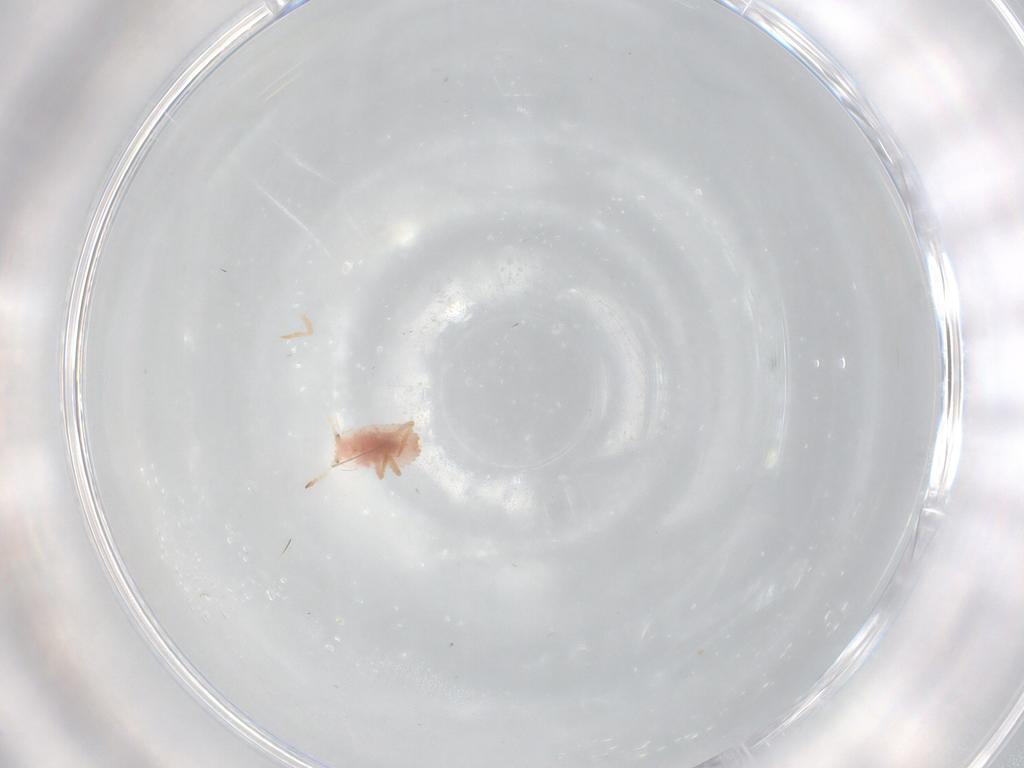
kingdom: Animalia
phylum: Arthropoda
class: Insecta
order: Hemiptera
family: Coccoidea_incertae_sedis
